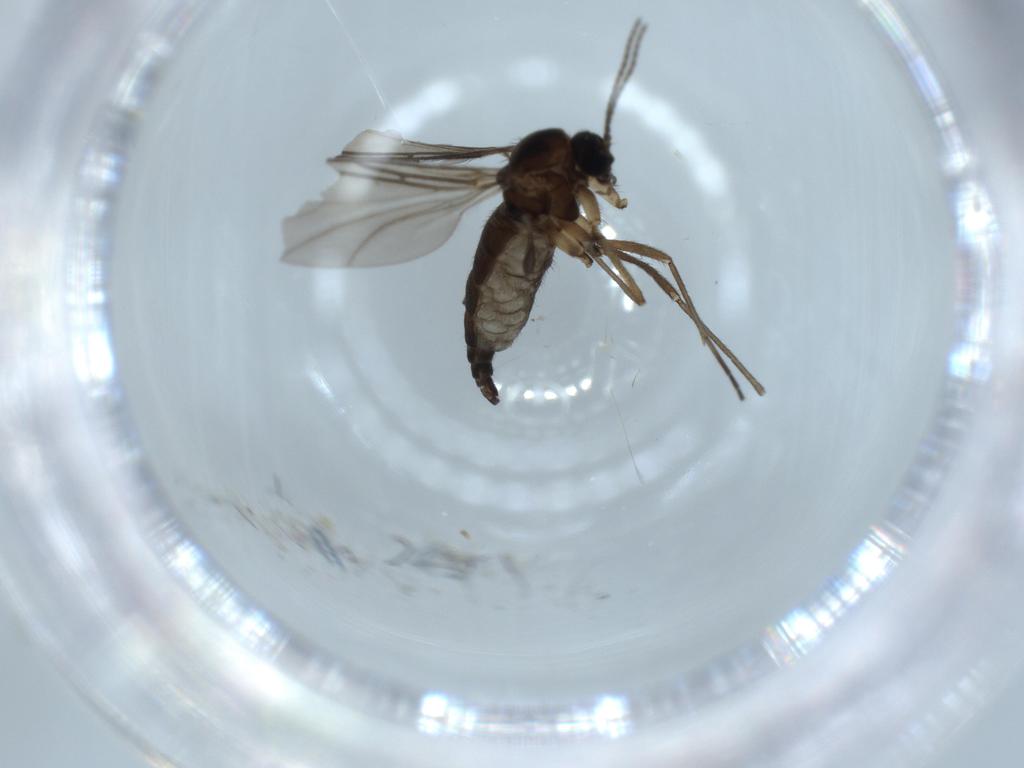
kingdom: Animalia
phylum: Arthropoda
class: Insecta
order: Diptera
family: Sciaridae
